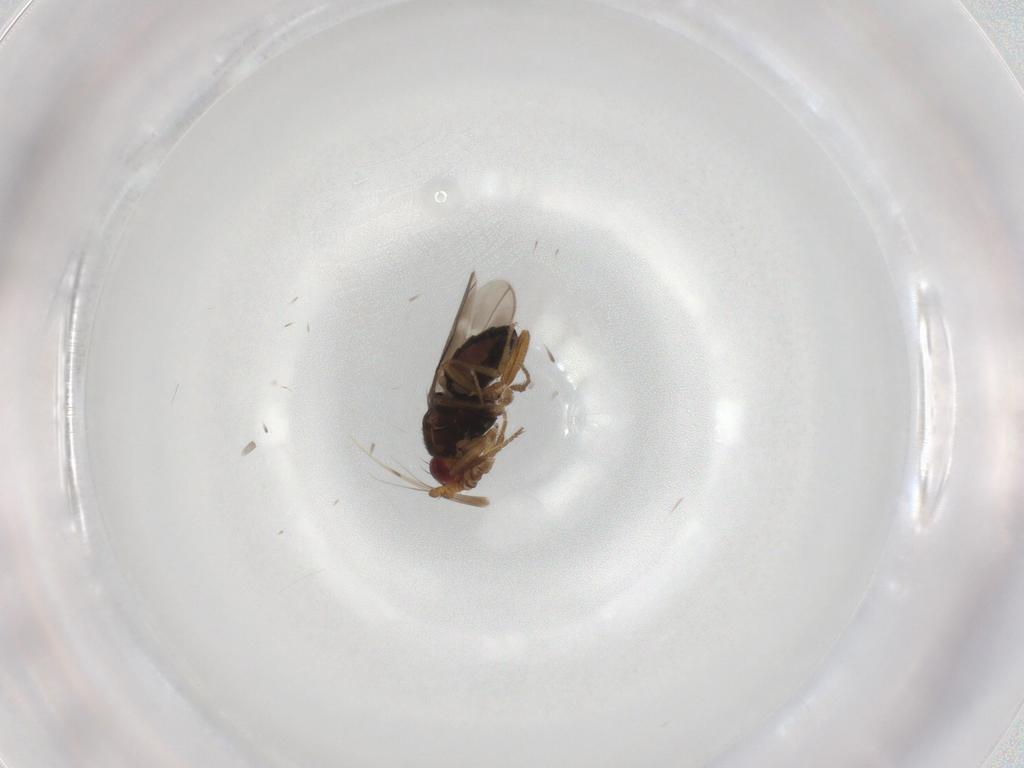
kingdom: Animalia
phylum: Arthropoda
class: Insecta
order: Diptera
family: Sphaeroceridae
